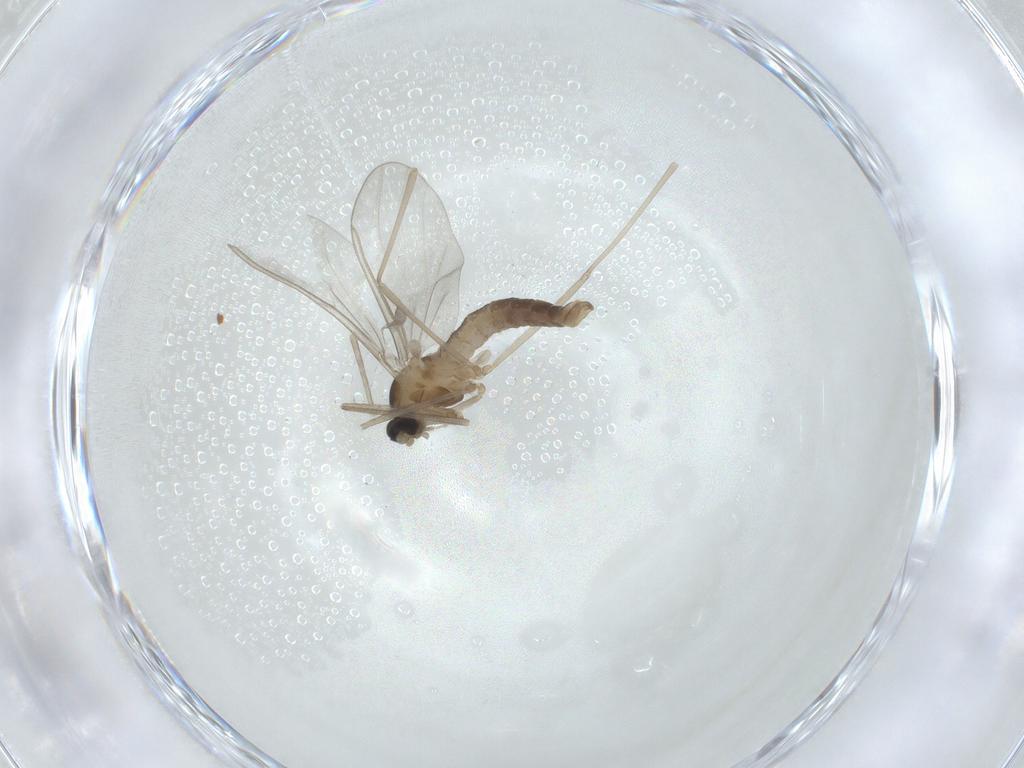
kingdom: Animalia
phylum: Arthropoda
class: Insecta
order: Diptera
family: Cecidomyiidae
